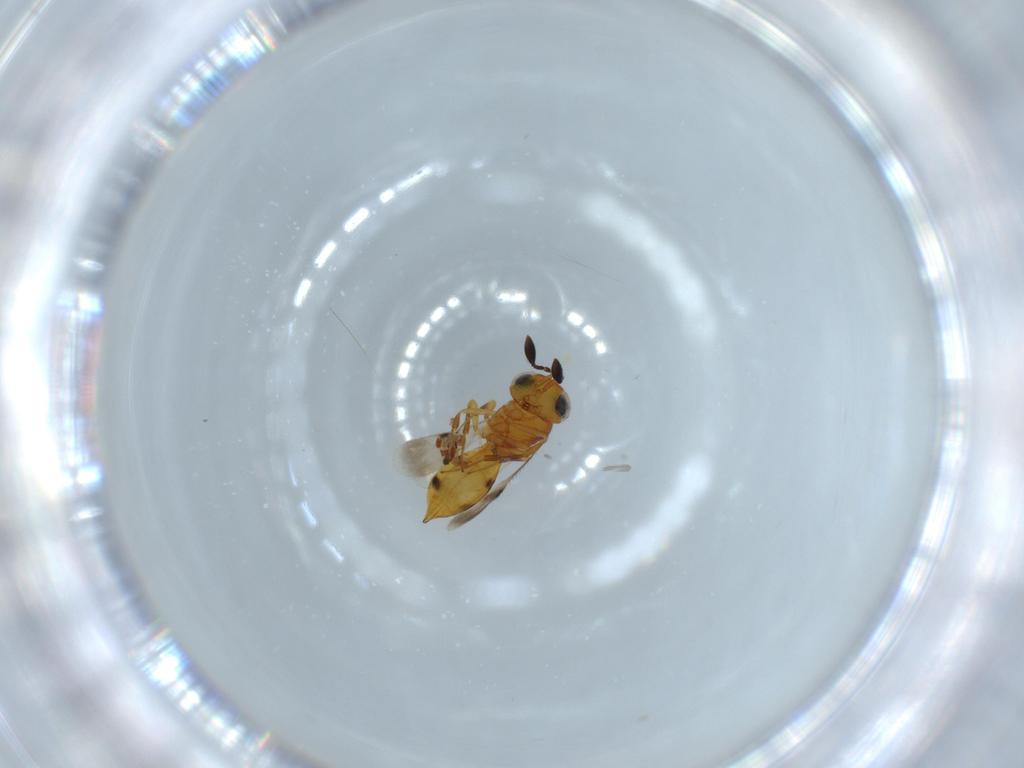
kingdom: Animalia
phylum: Arthropoda
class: Insecta
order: Hymenoptera
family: Scelionidae
